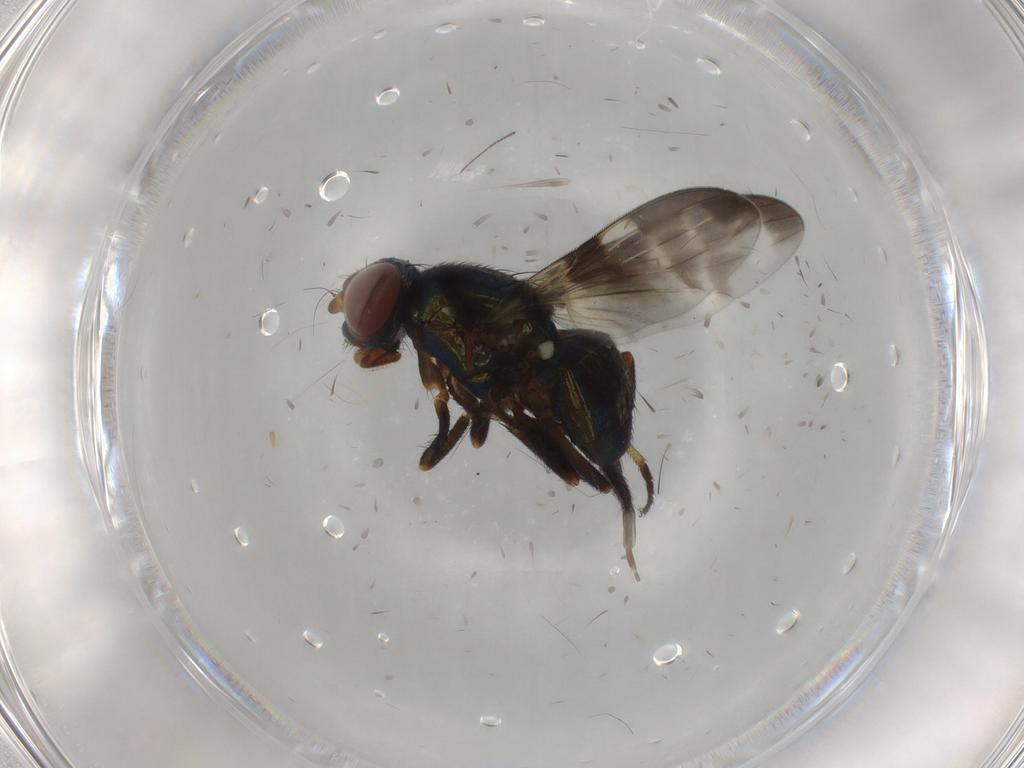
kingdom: Animalia
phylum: Arthropoda
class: Insecta
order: Diptera
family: Ulidiidae
